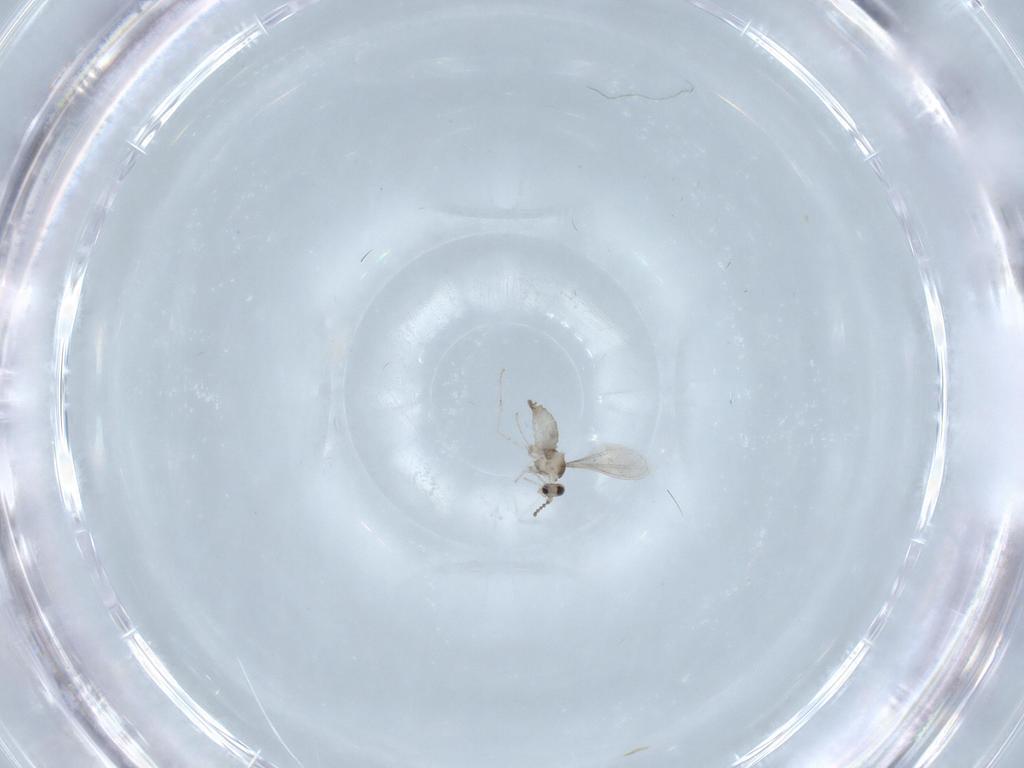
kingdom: Animalia
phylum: Arthropoda
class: Insecta
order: Diptera
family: Cecidomyiidae
